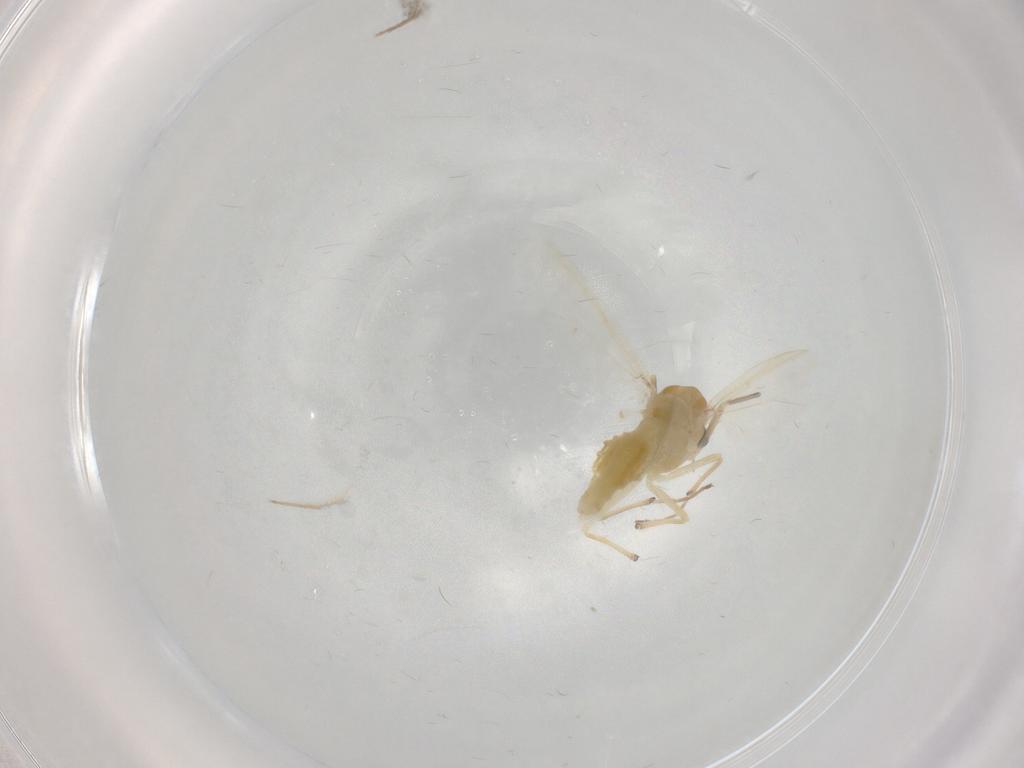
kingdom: Animalia
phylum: Arthropoda
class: Insecta
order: Diptera
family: Chironomidae
